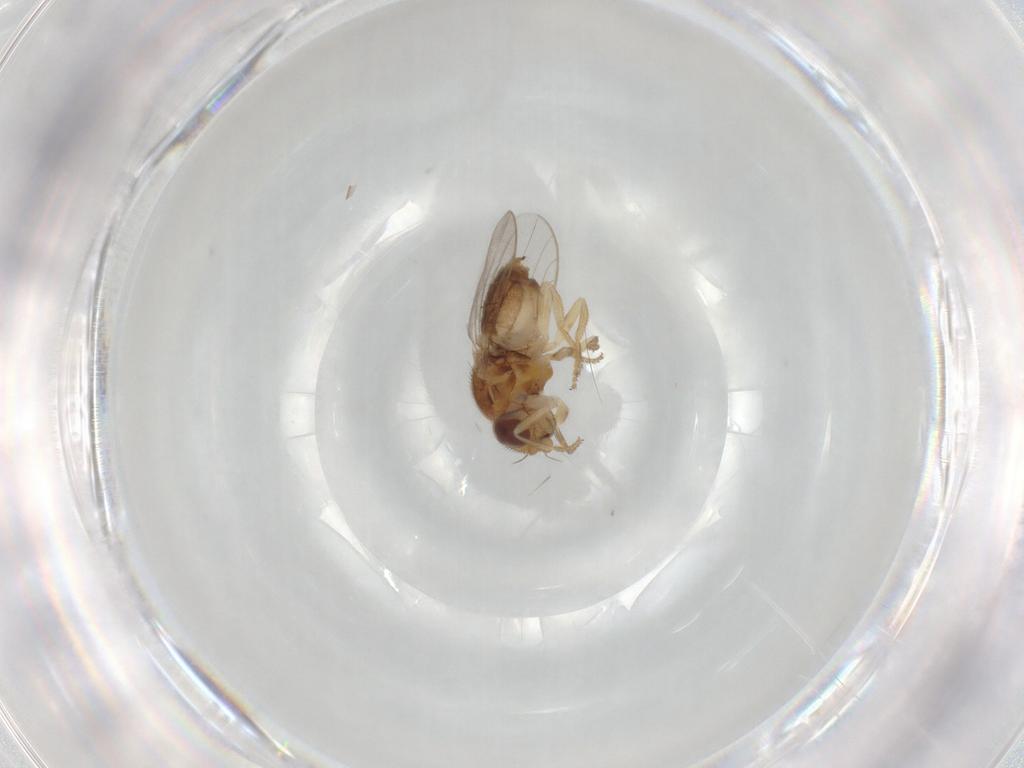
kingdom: Animalia
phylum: Arthropoda
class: Insecta
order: Diptera
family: Chloropidae
